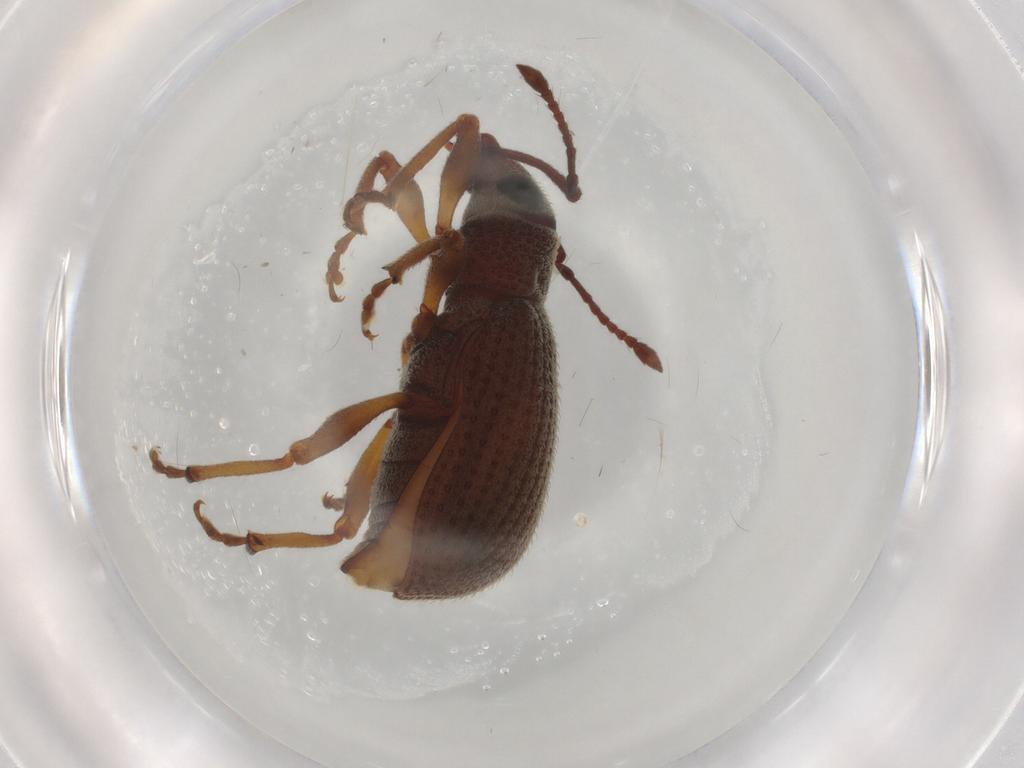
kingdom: Animalia
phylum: Arthropoda
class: Insecta
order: Coleoptera
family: Curculionidae
